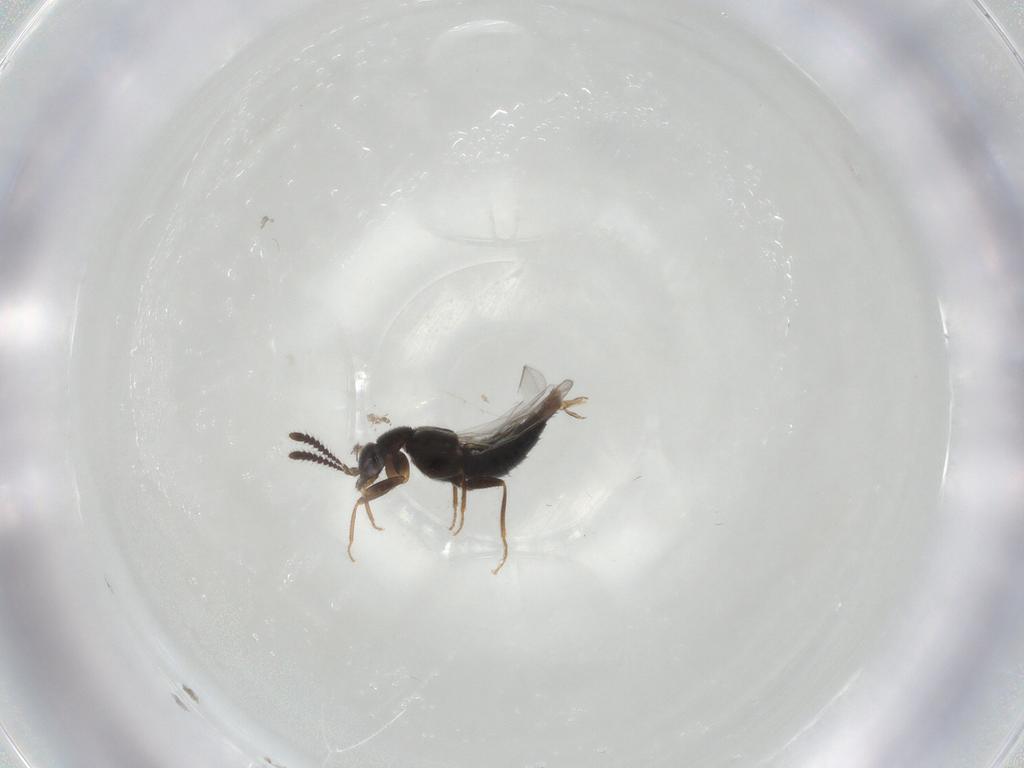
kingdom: Animalia
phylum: Arthropoda
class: Insecta
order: Coleoptera
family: Staphylinidae
